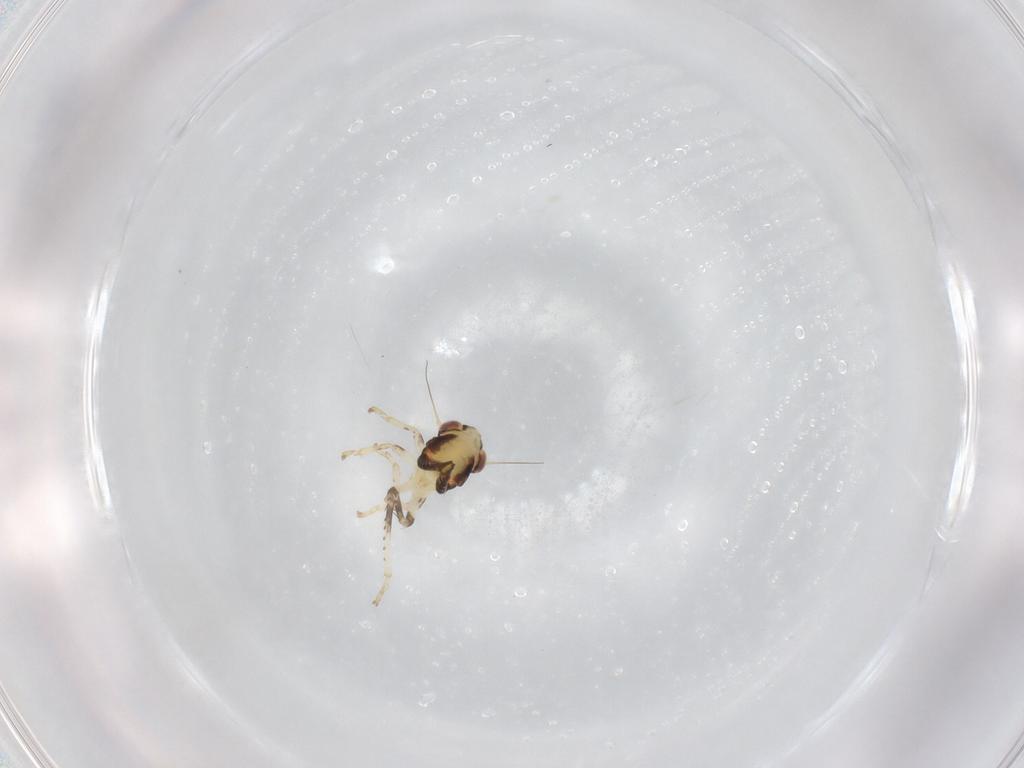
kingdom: Animalia
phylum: Arthropoda
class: Insecta
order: Hemiptera
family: Cicadellidae
